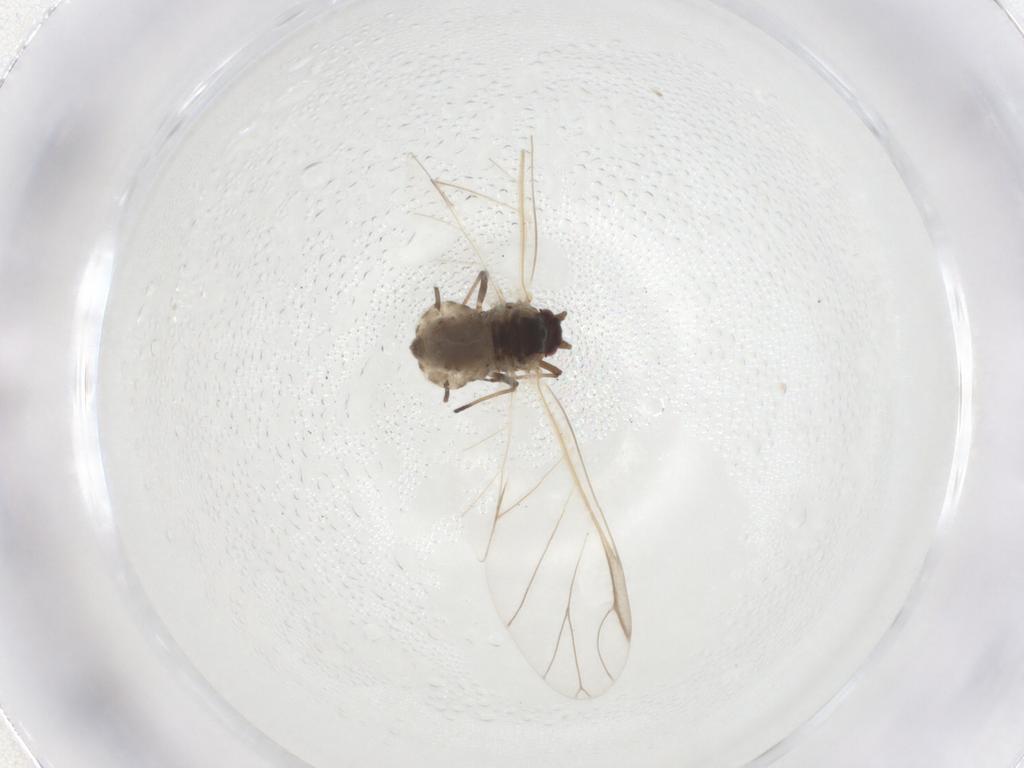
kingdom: Animalia
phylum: Arthropoda
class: Insecta
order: Hemiptera
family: Aphididae
